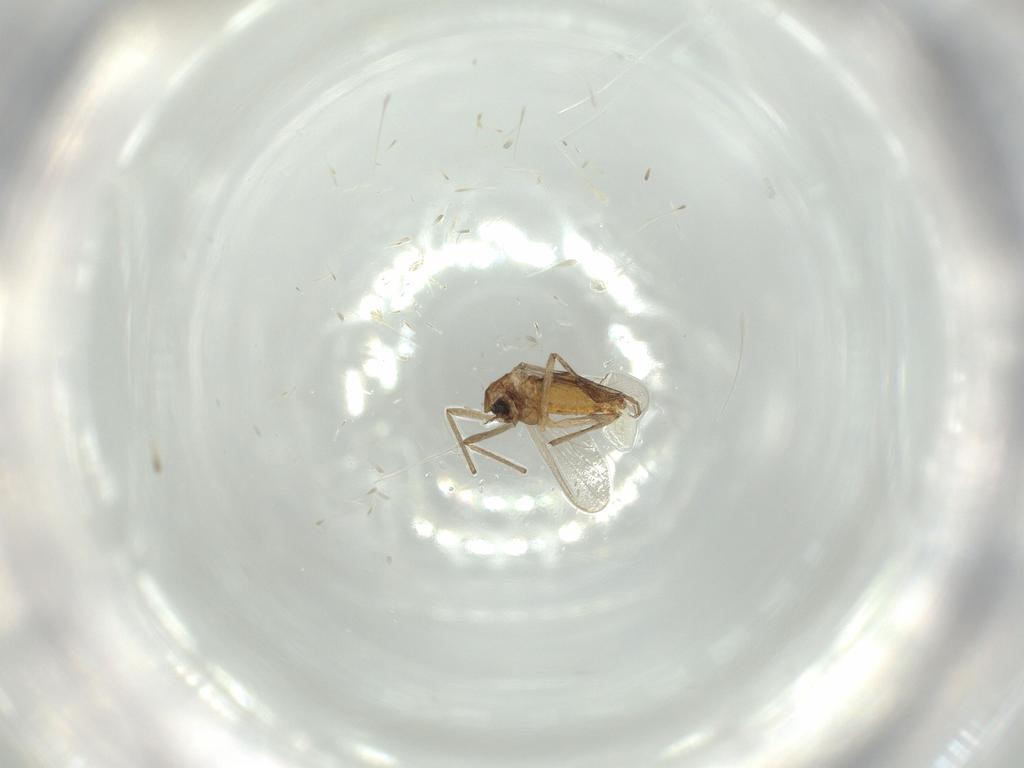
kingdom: Animalia
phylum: Arthropoda
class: Insecta
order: Diptera
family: Chironomidae
